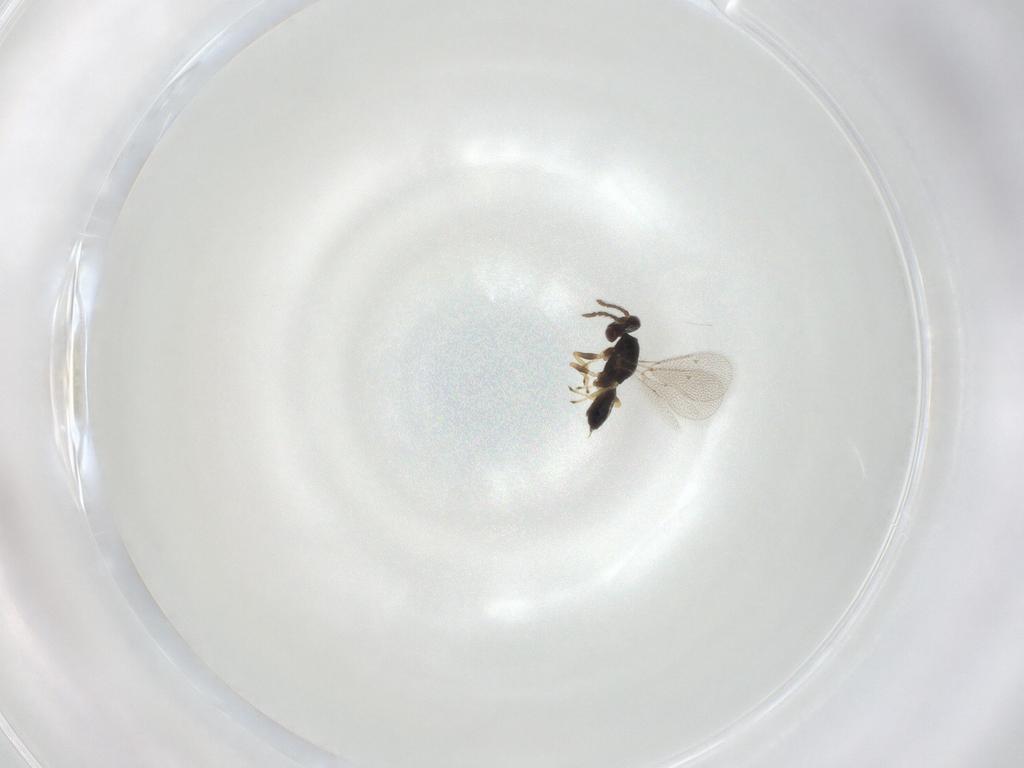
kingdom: Animalia
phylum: Arthropoda
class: Insecta
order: Hymenoptera
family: Eulophidae
